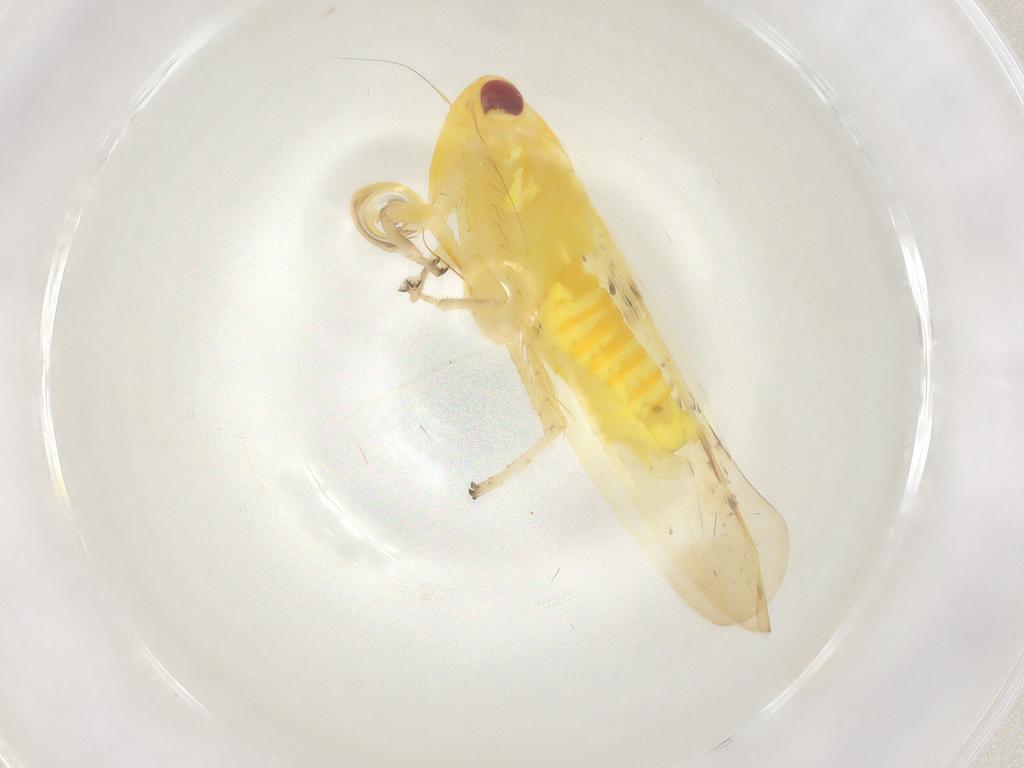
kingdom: Animalia
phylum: Arthropoda
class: Insecta
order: Hemiptera
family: Cicadellidae
